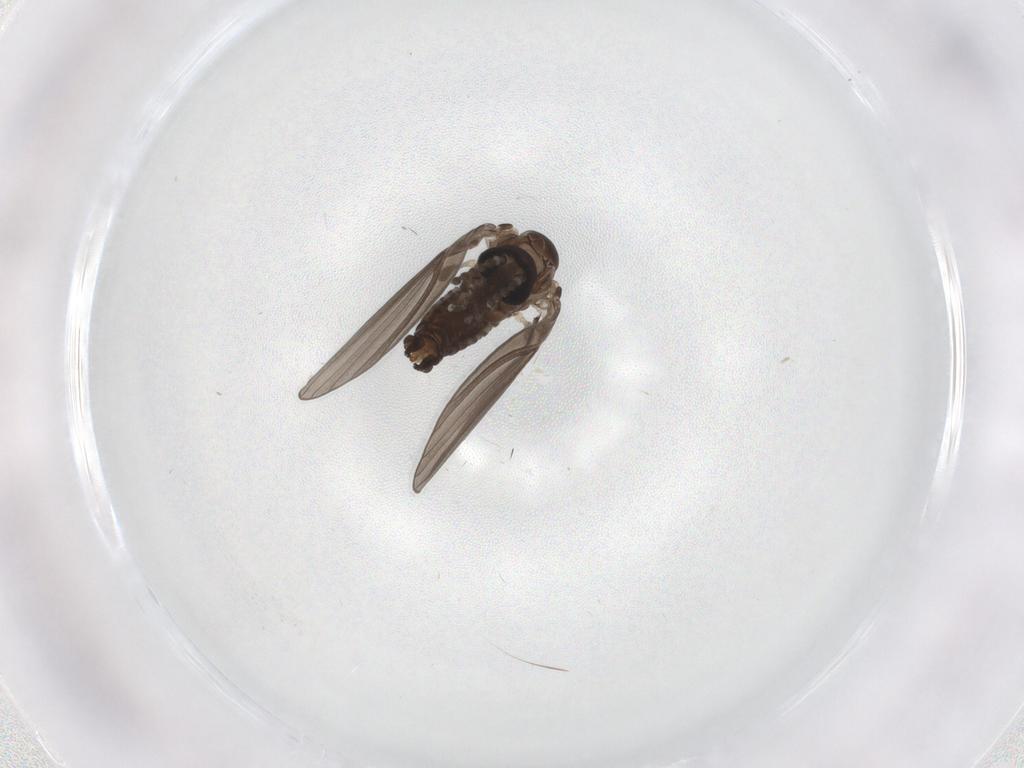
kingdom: Animalia
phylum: Arthropoda
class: Insecta
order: Diptera
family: Psychodidae
